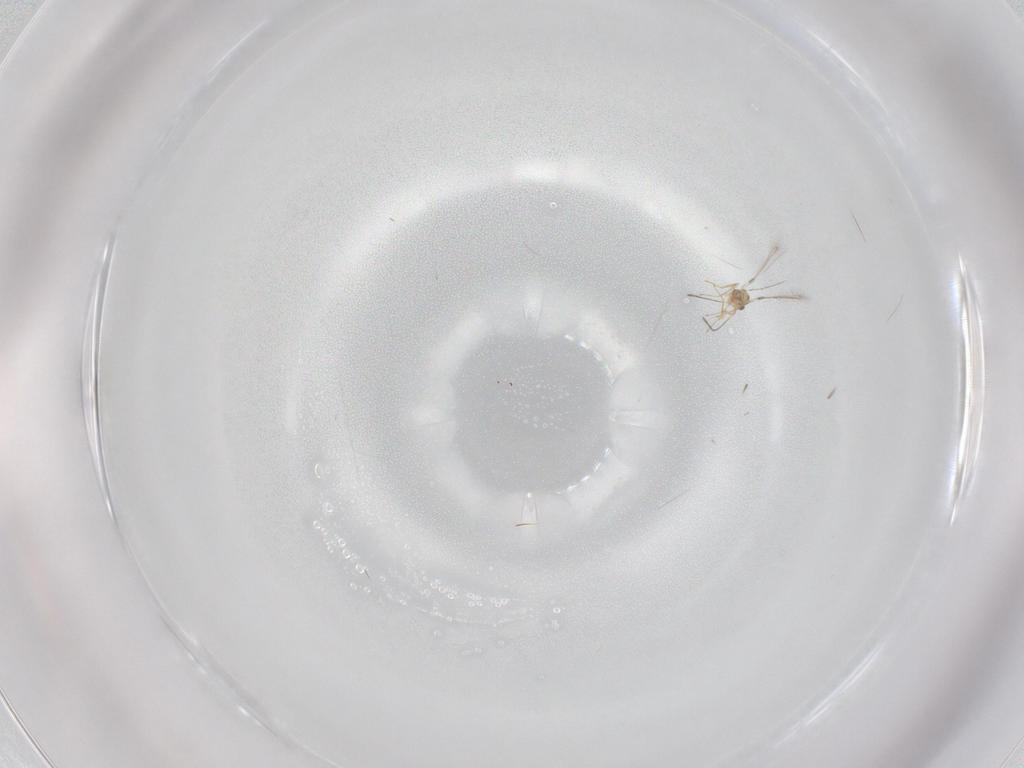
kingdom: Animalia
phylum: Arthropoda
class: Insecta
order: Hymenoptera
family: Mymaridae
